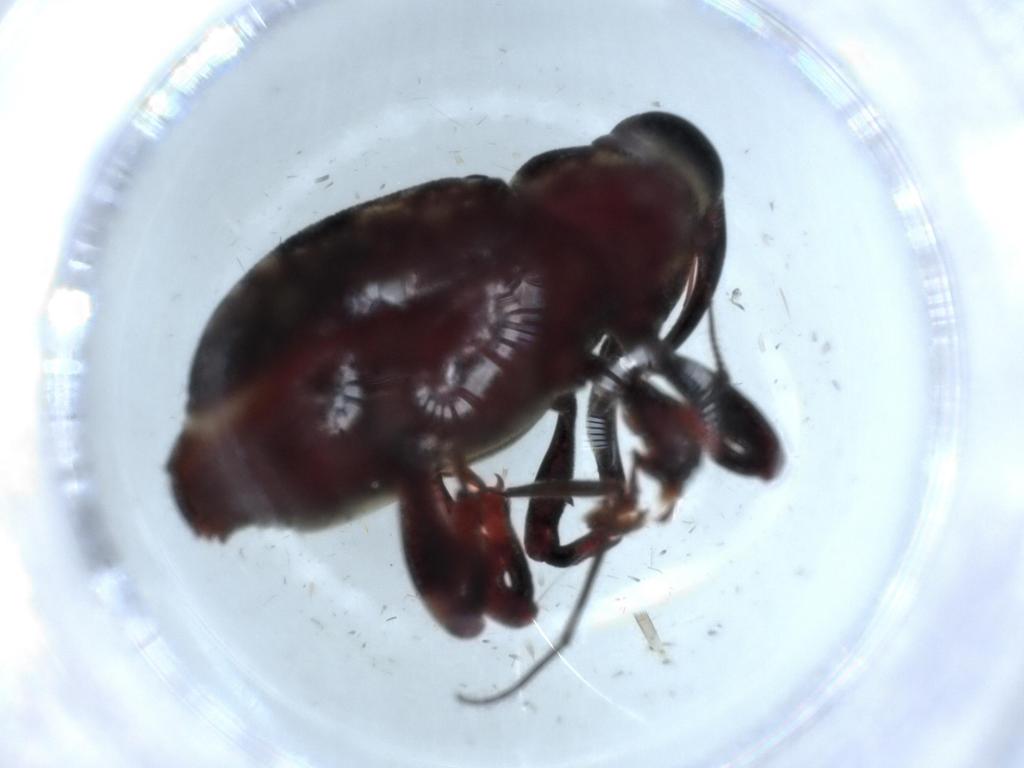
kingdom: Animalia
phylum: Arthropoda
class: Insecta
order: Coleoptera
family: Curculionidae
